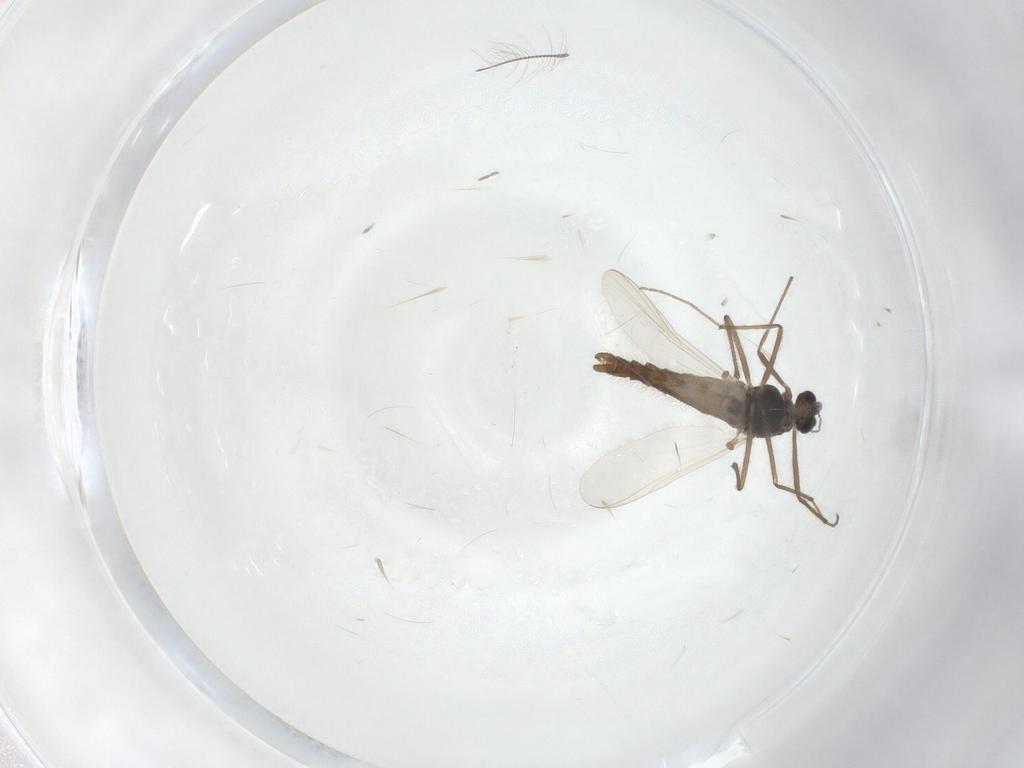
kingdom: Animalia
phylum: Arthropoda
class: Insecta
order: Diptera
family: Chironomidae
